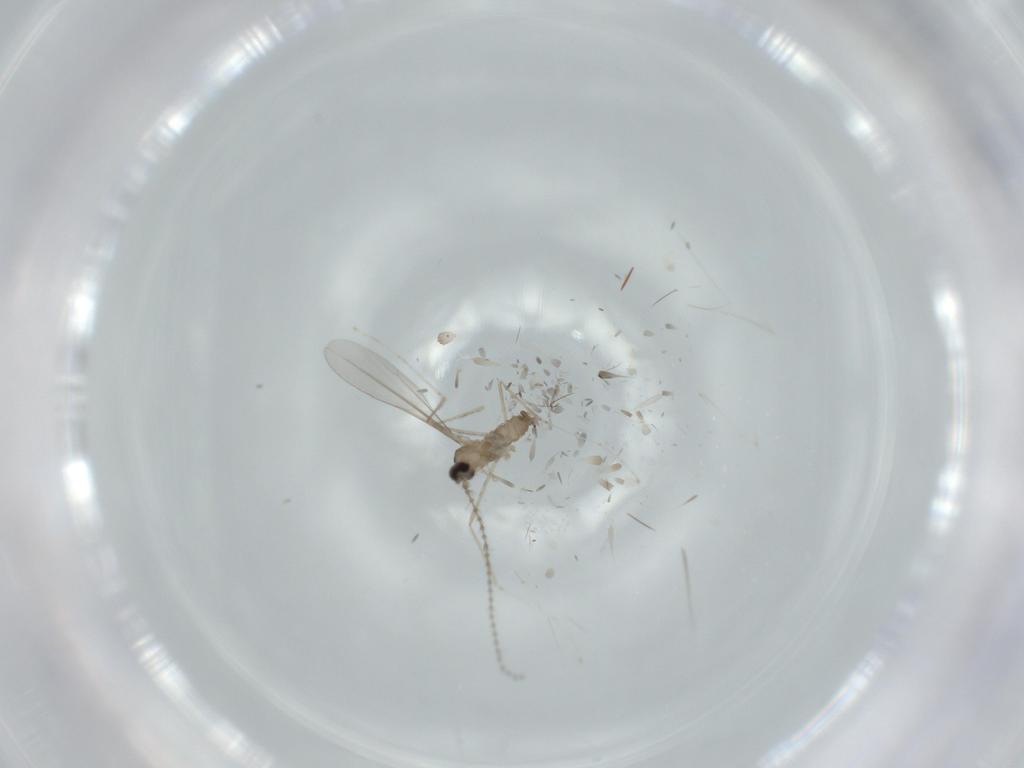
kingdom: Animalia
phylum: Arthropoda
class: Insecta
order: Diptera
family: Cecidomyiidae
